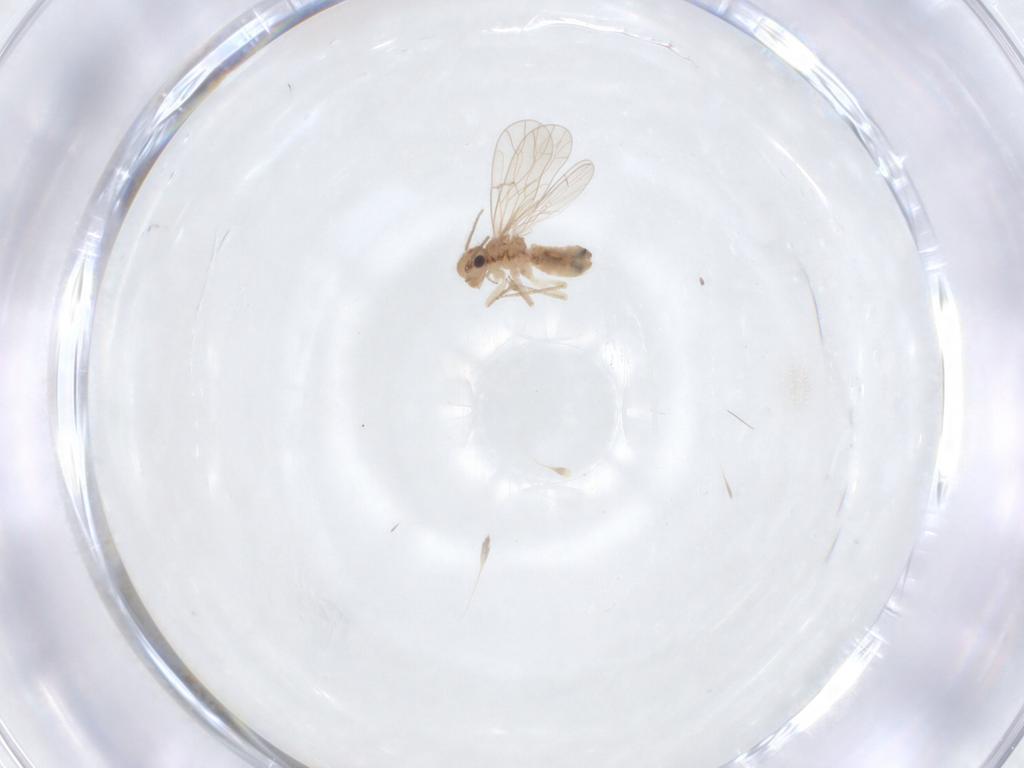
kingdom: Animalia
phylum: Arthropoda
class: Insecta
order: Psocodea
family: Ectopsocidae
